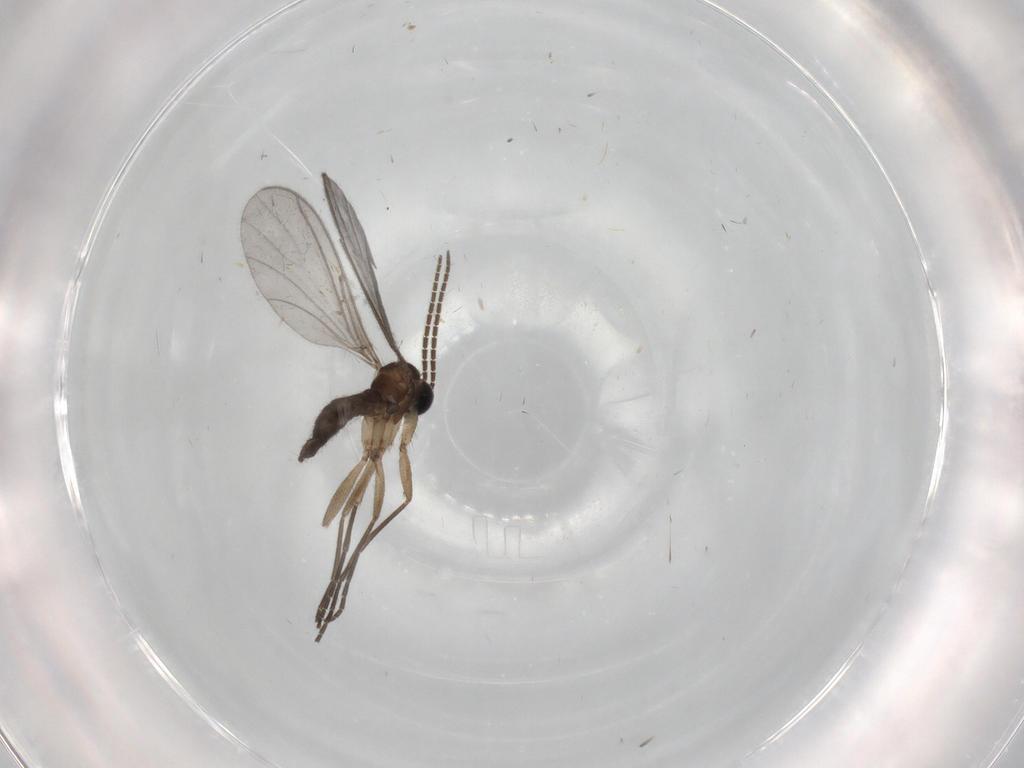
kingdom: Animalia
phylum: Arthropoda
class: Insecta
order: Diptera
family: Sciaridae
